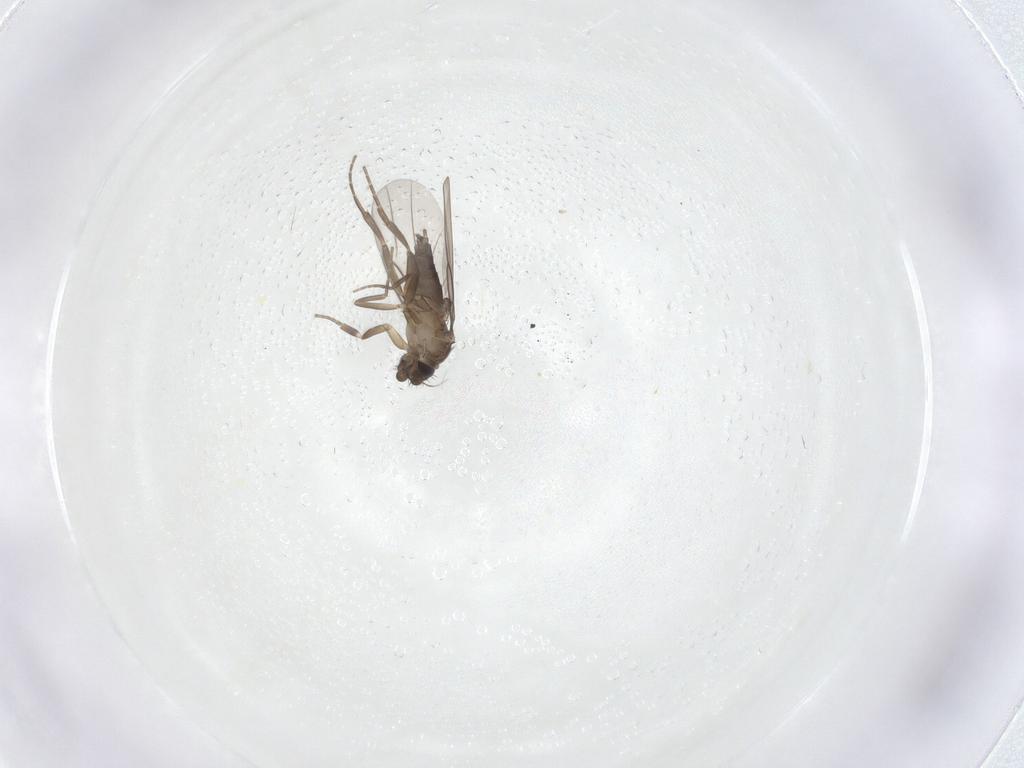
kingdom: Animalia
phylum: Arthropoda
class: Insecta
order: Diptera
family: Phoridae
